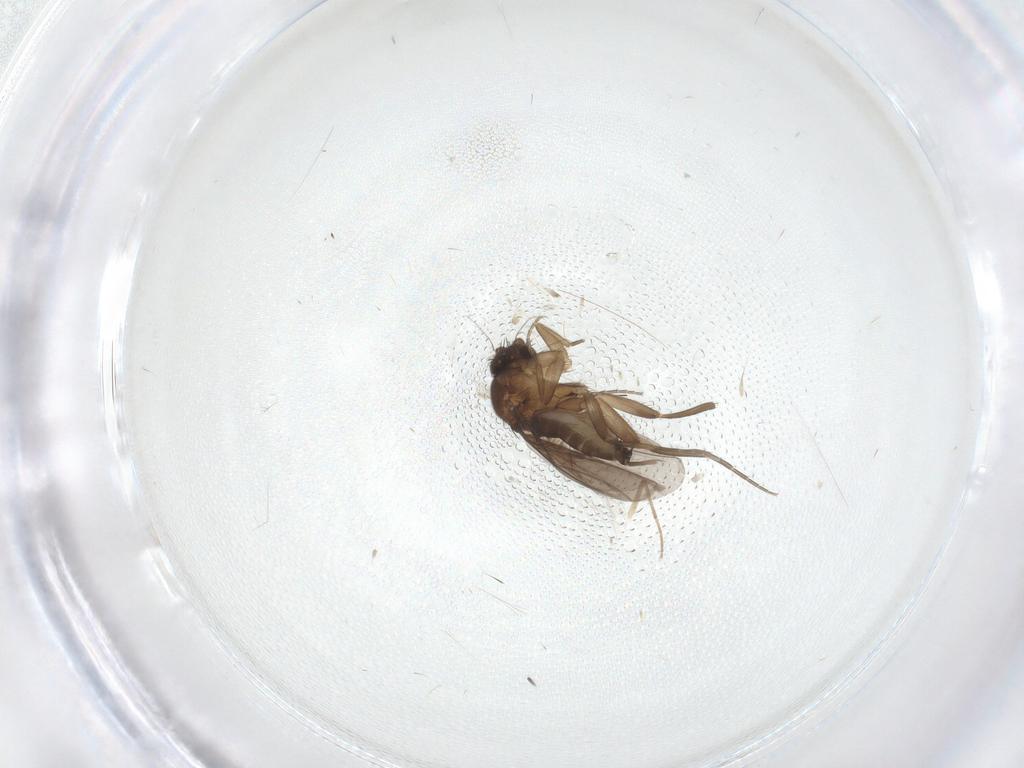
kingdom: Animalia
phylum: Arthropoda
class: Insecta
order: Diptera
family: Phoridae
